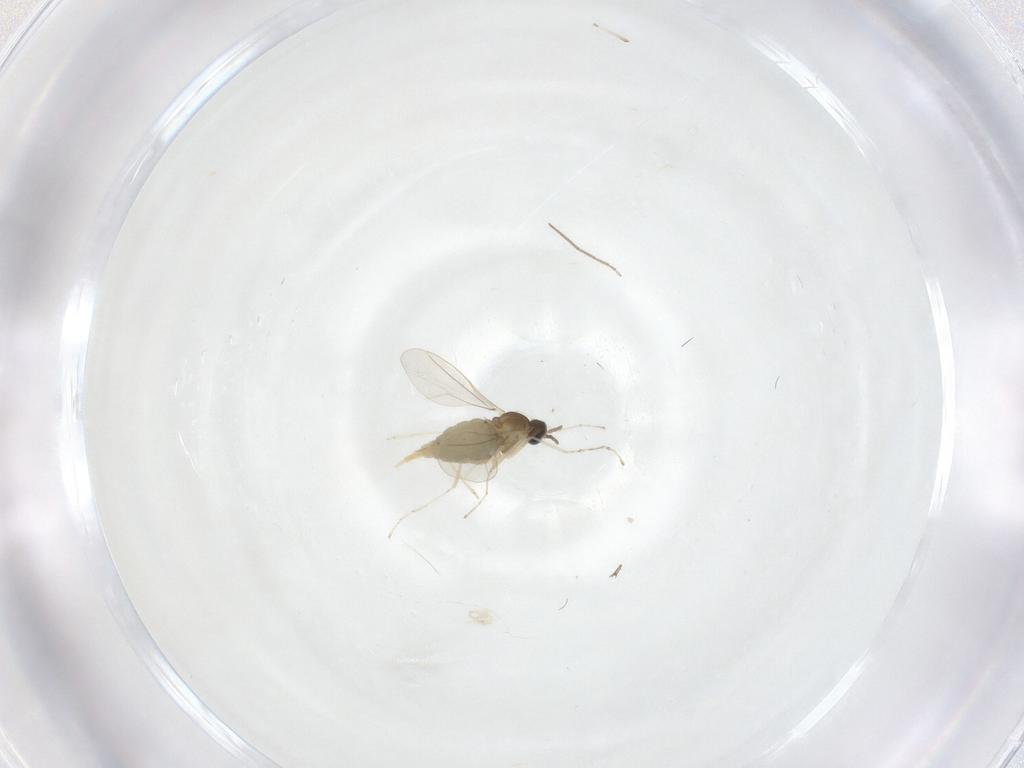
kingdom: Animalia
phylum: Arthropoda
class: Insecta
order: Diptera
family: Chironomidae
